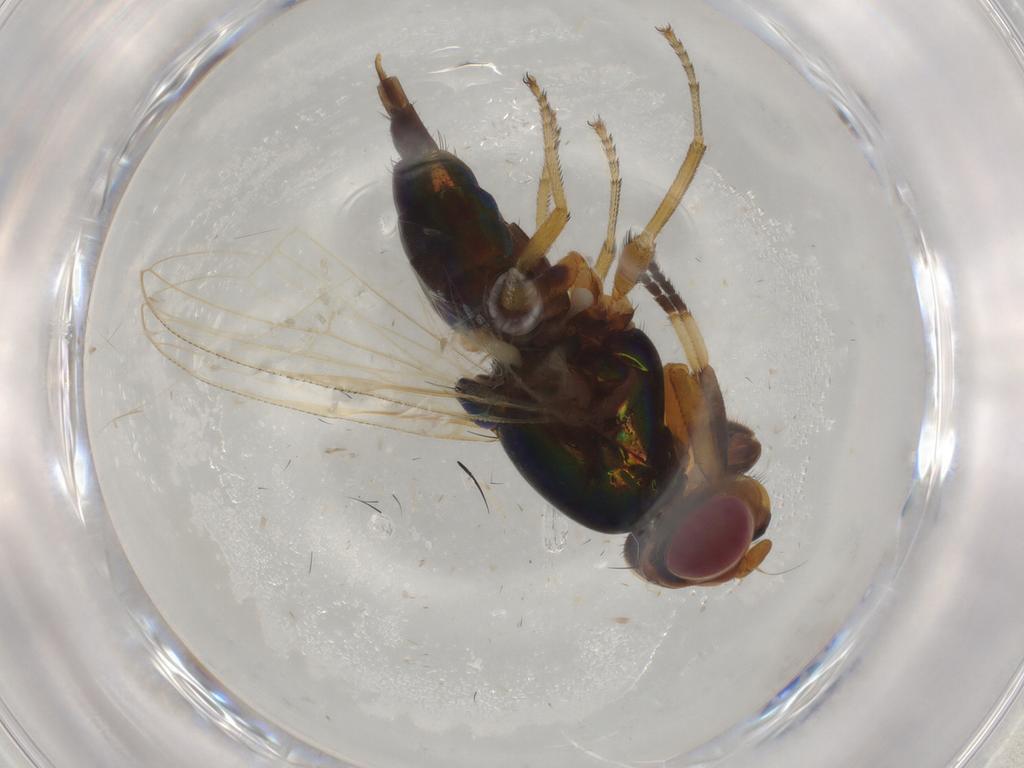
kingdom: Animalia
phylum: Arthropoda
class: Insecta
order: Diptera
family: Ulidiidae
